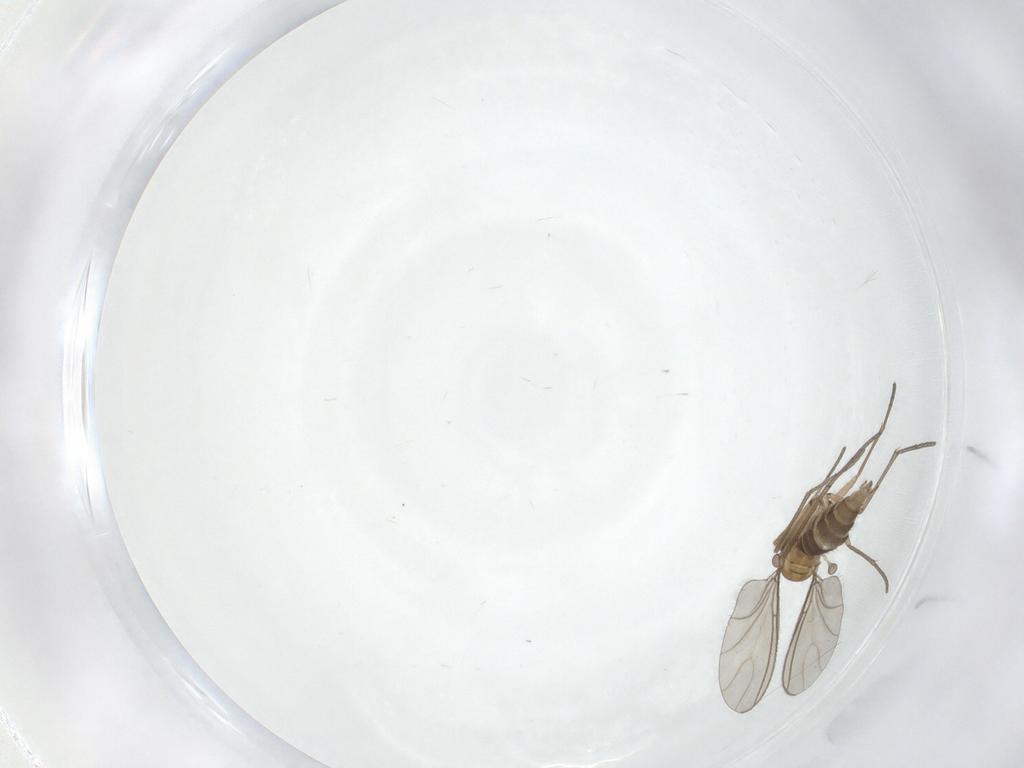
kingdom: Animalia
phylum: Arthropoda
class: Insecta
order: Diptera
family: Sciaridae
